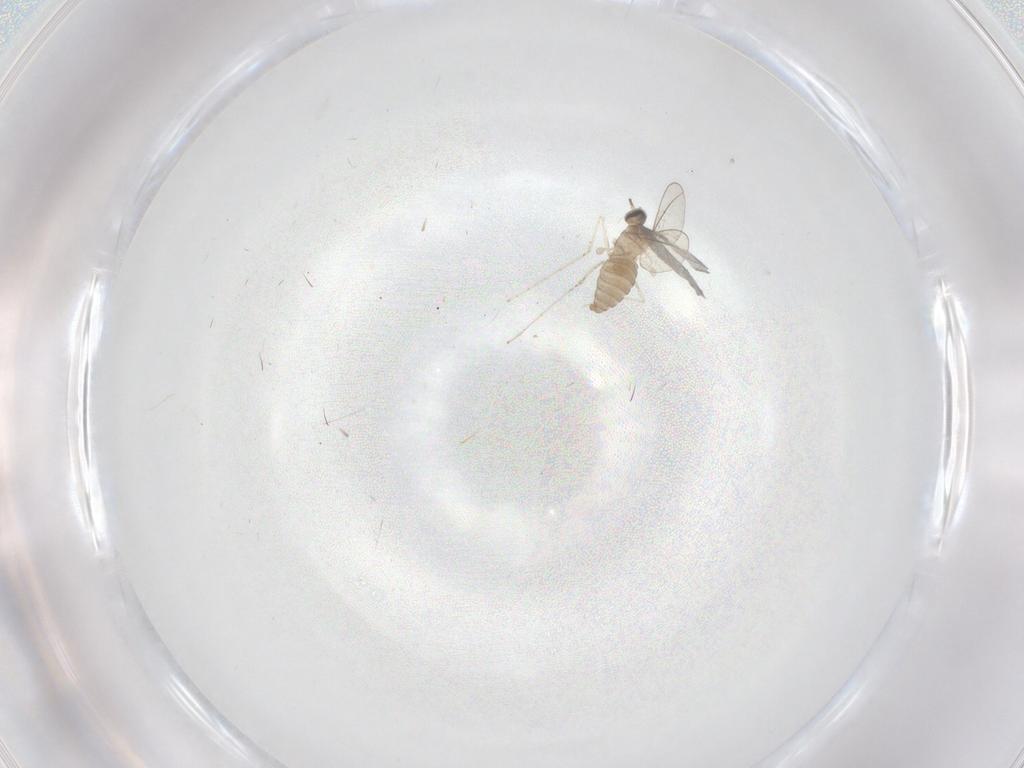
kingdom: Animalia
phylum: Arthropoda
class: Insecta
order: Diptera
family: Cecidomyiidae
